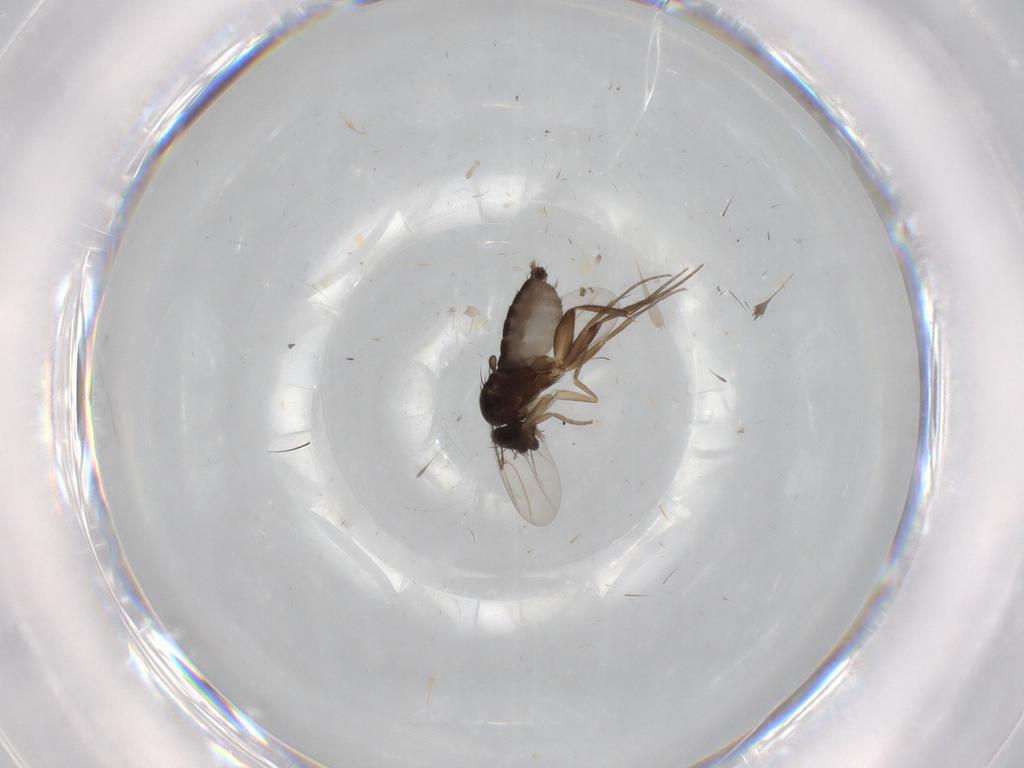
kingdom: Animalia
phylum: Arthropoda
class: Insecta
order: Diptera
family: Phoridae
